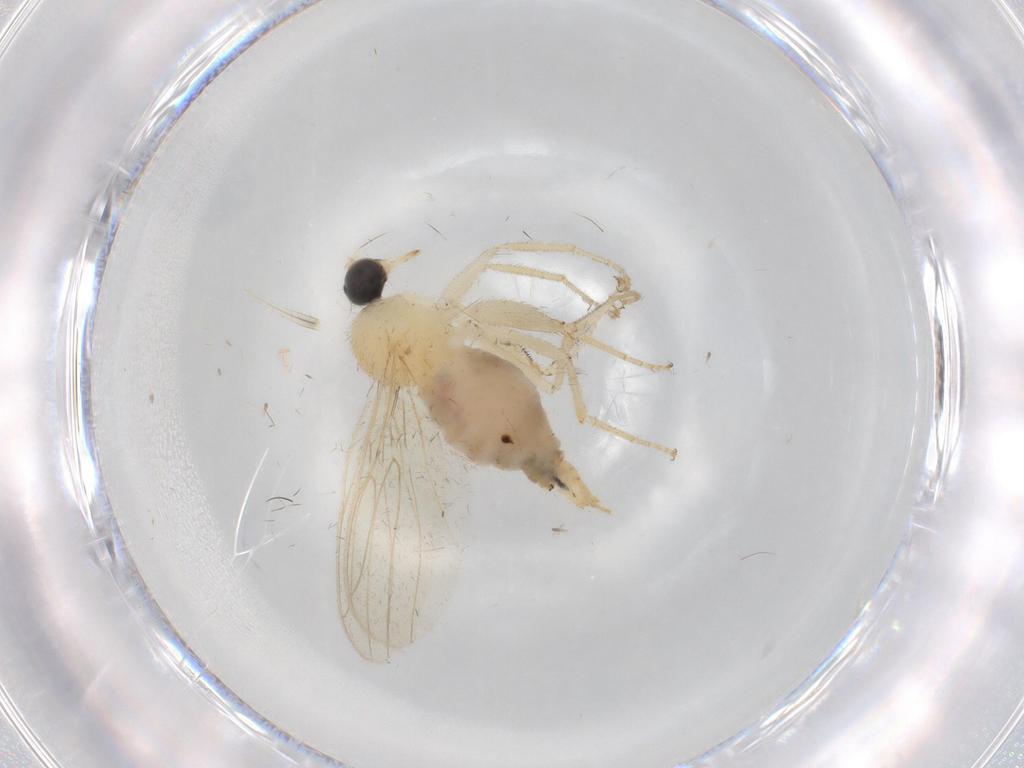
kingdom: Animalia
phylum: Arthropoda
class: Insecta
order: Diptera
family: Hybotidae
